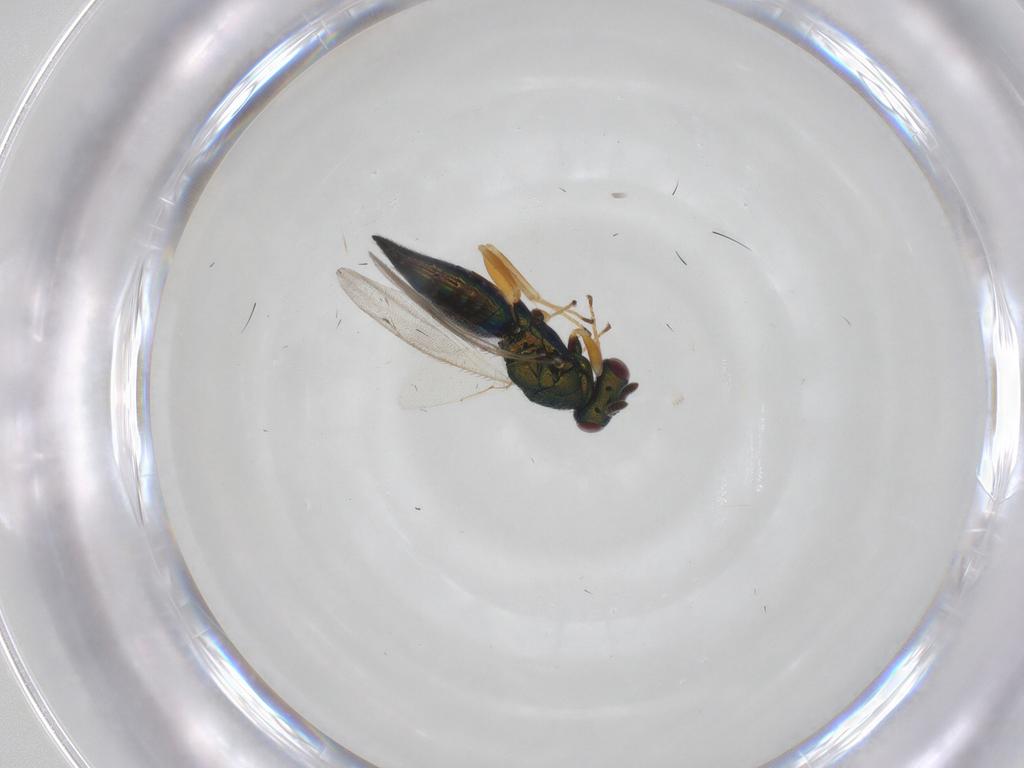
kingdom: Animalia
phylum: Arthropoda
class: Insecta
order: Hymenoptera
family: Pteromalidae
